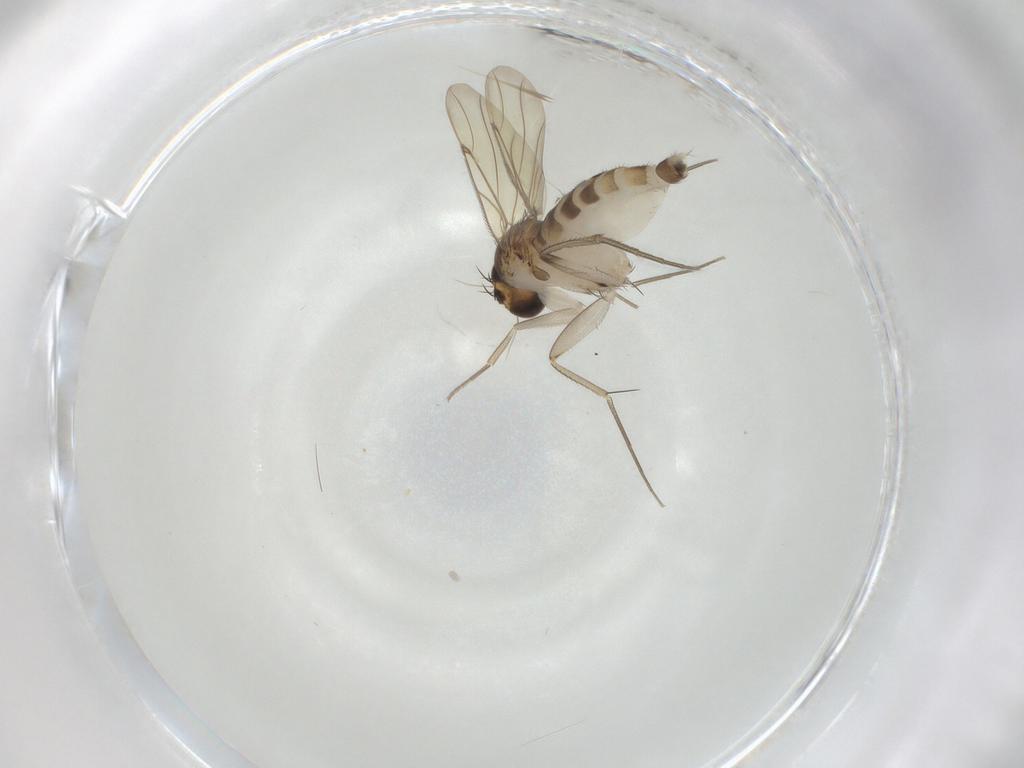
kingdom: Animalia
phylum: Arthropoda
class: Insecta
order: Diptera
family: Phoridae
